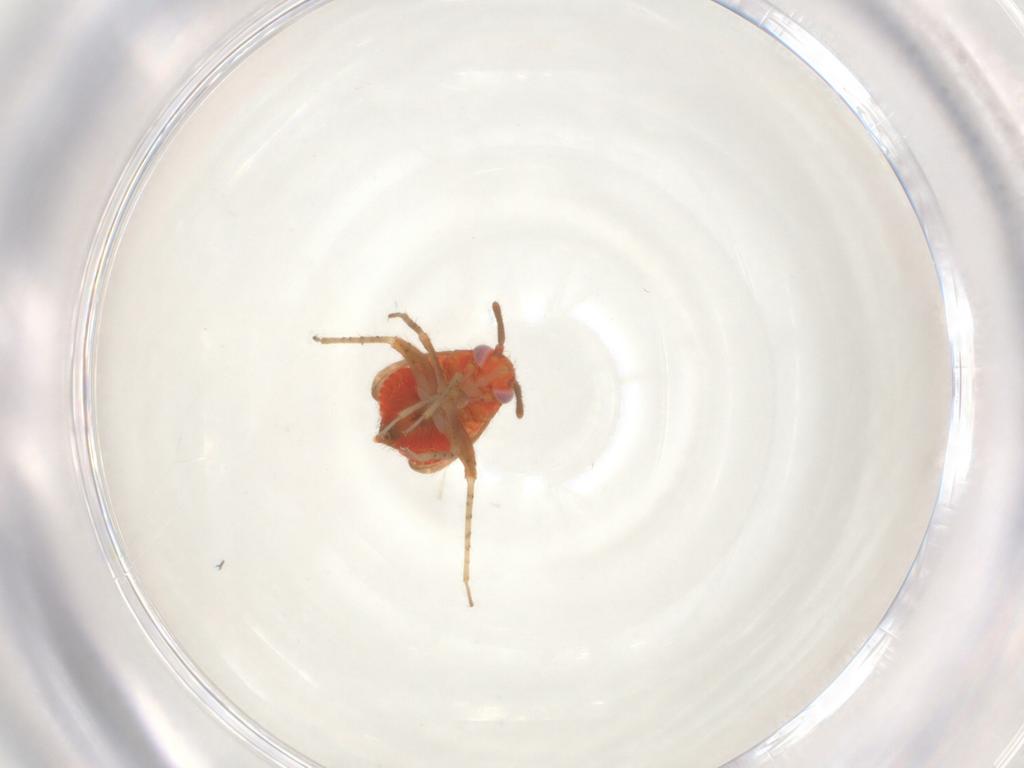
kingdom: Animalia
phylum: Arthropoda
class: Insecta
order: Hemiptera
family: Miridae
